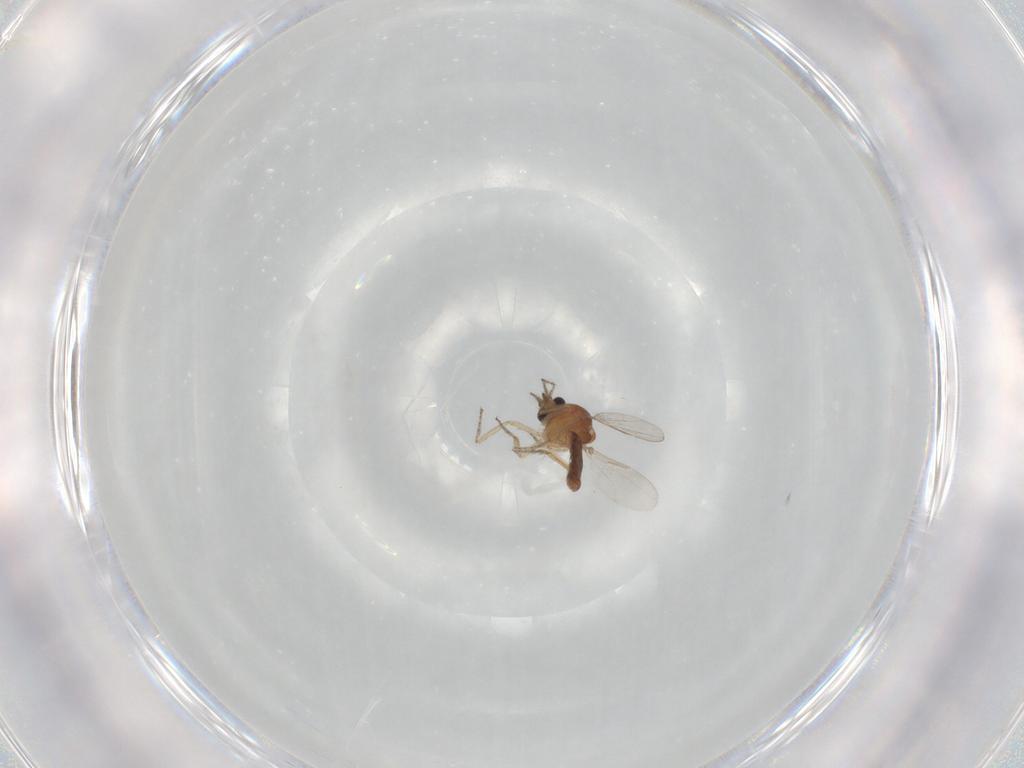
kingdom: Animalia
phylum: Arthropoda
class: Insecta
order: Diptera
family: Ceratopogonidae
